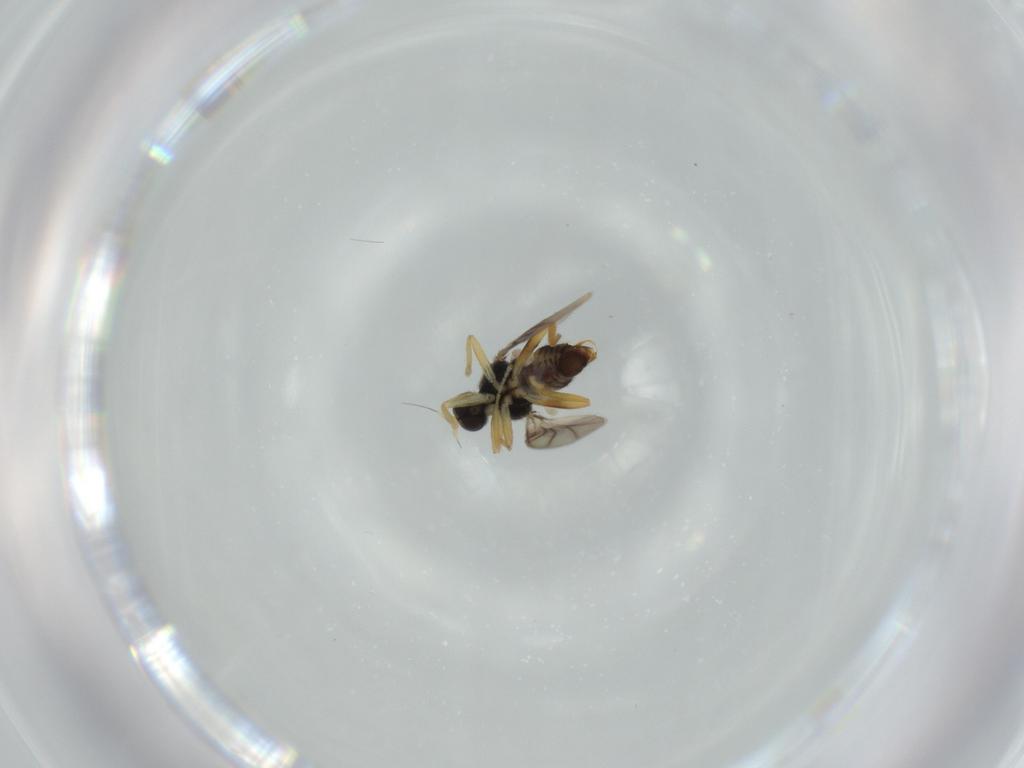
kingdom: Animalia
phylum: Arthropoda
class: Insecta
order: Diptera
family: Hybotidae
